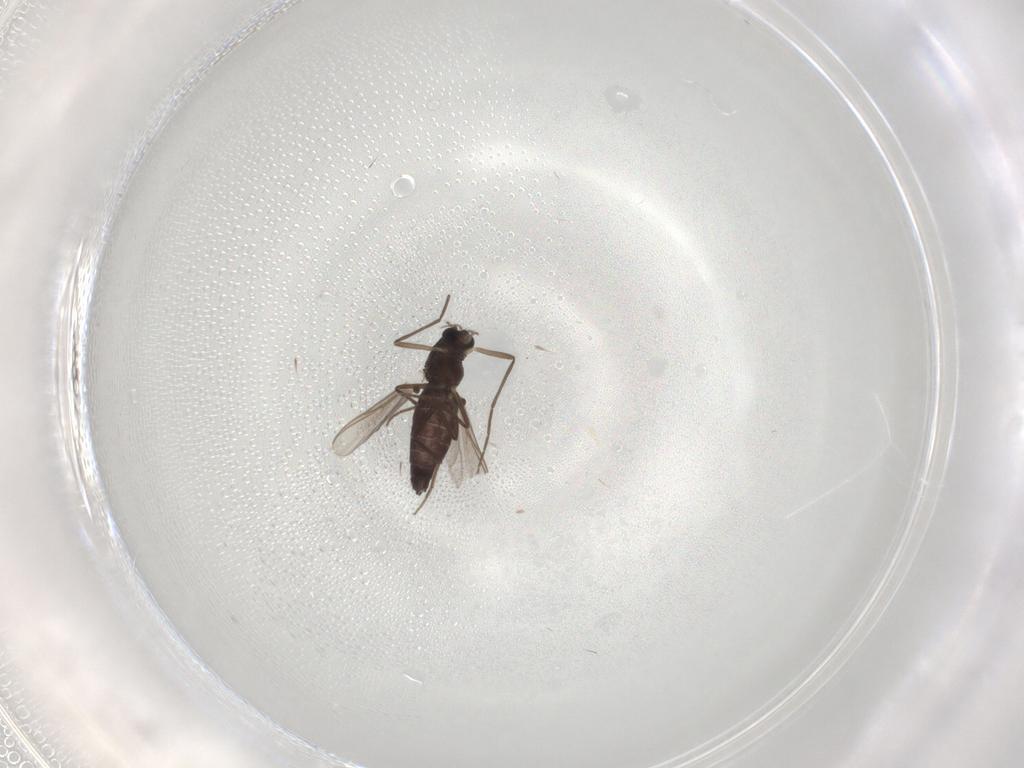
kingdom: Animalia
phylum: Arthropoda
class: Insecta
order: Diptera
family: Chironomidae
